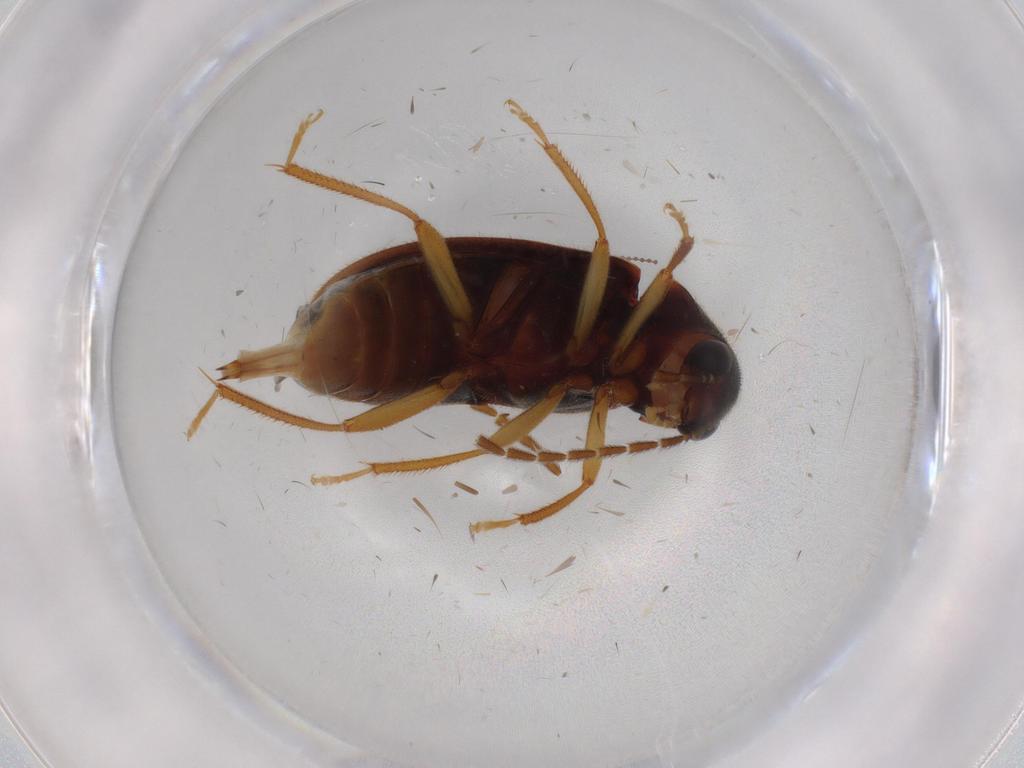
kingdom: Animalia
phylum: Arthropoda
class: Insecta
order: Coleoptera
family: Ptilodactylidae
